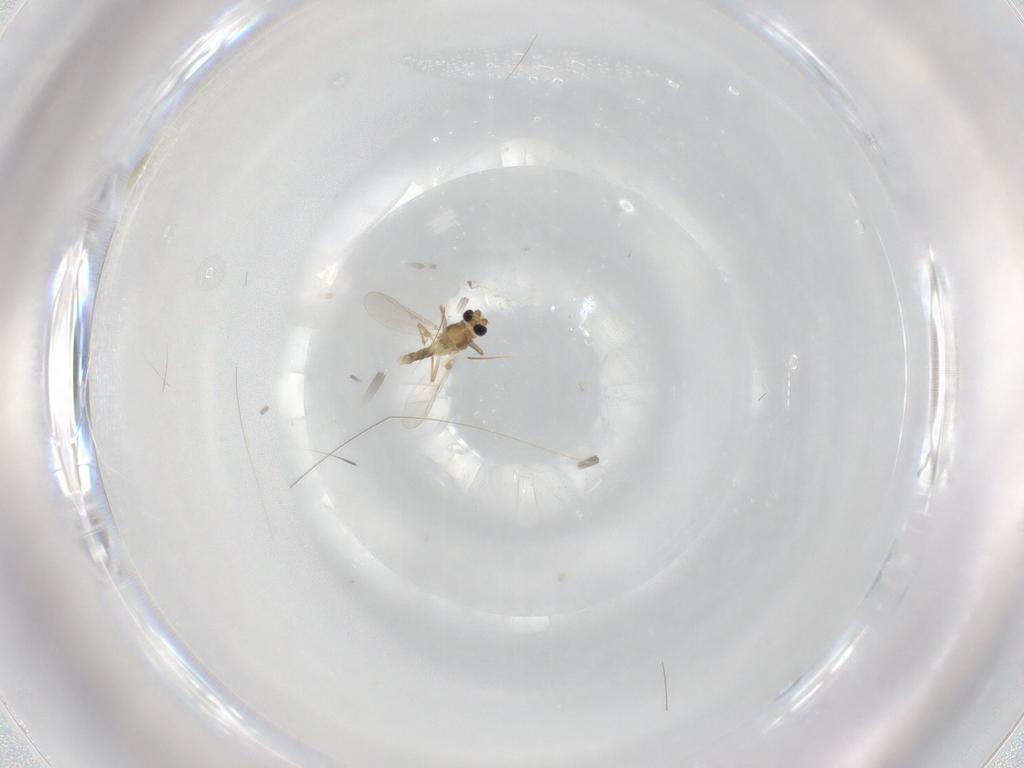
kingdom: Animalia
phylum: Arthropoda
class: Insecta
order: Diptera
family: Chironomidae
